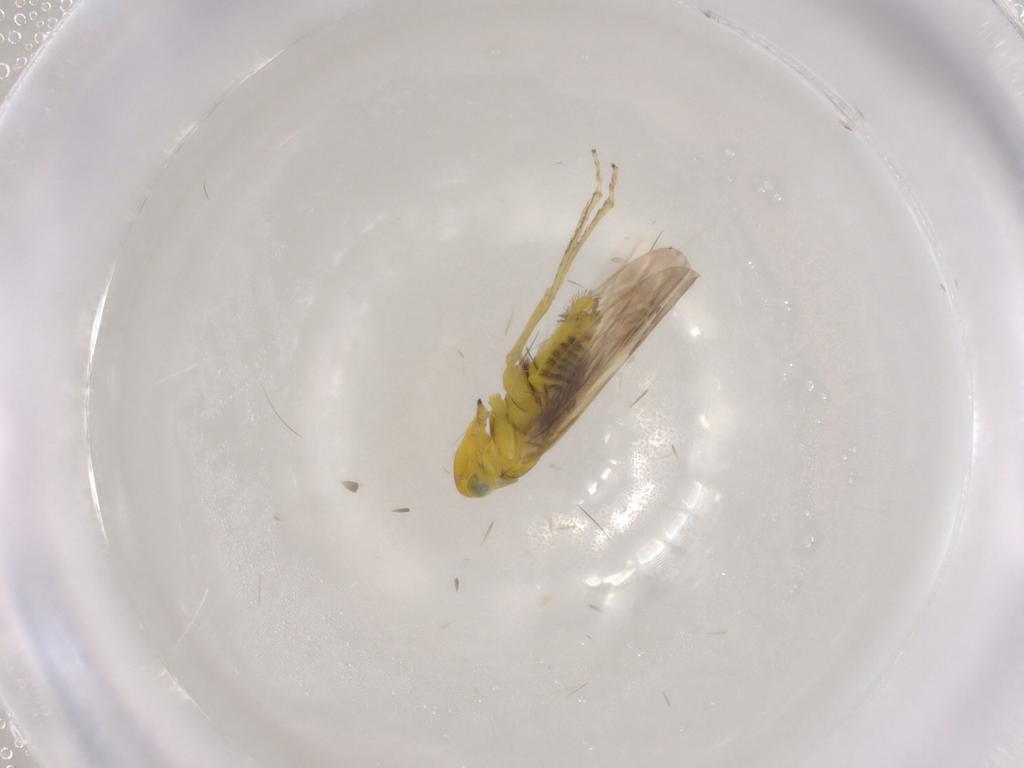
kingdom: Animalia
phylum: Arthropoda
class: Insecta
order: Hemiptera
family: Cicadellidae
